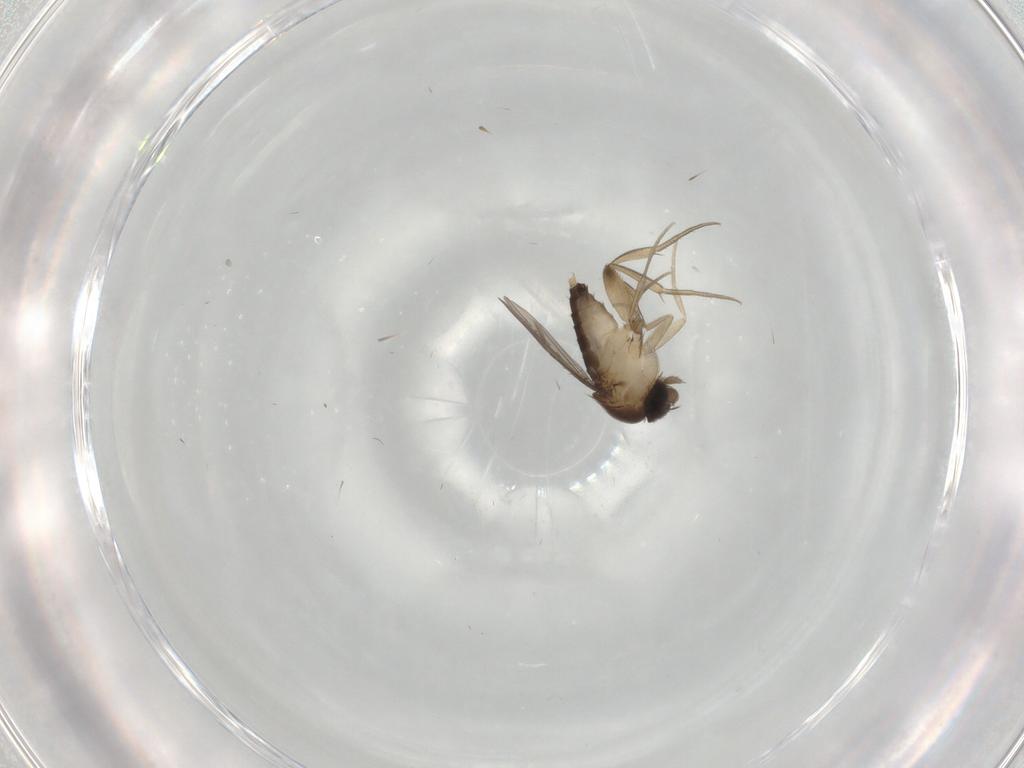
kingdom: Animalia
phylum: Arthropoda
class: Insecta
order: Diptera
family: Phoridae
